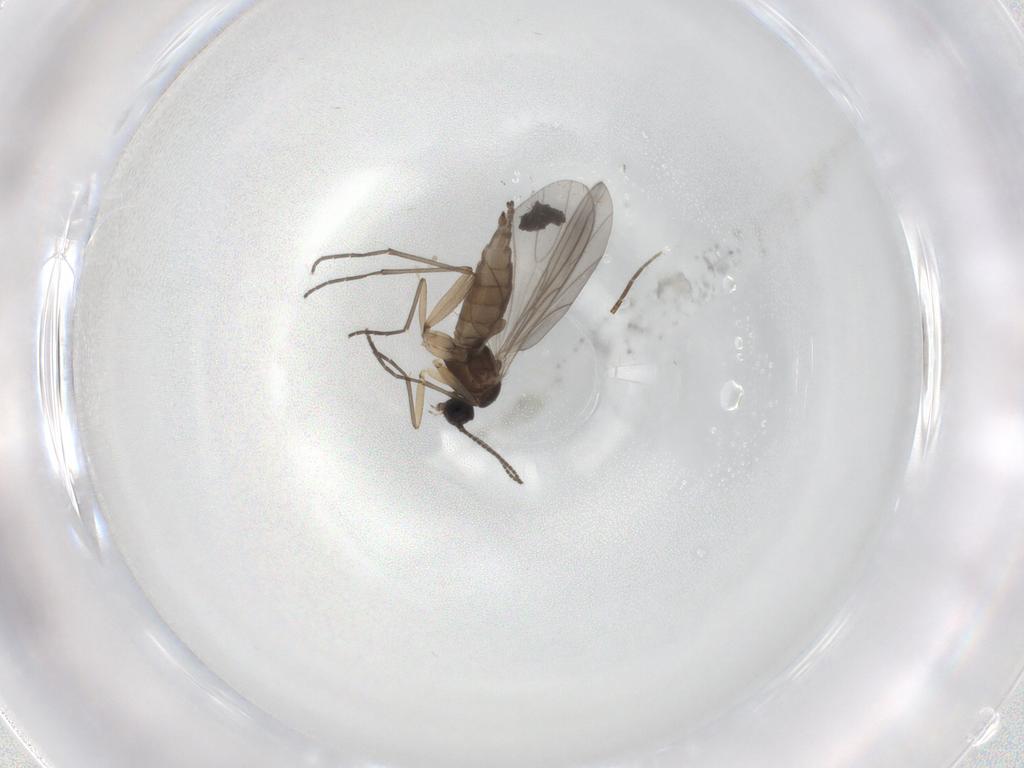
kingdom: Animalia
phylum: Arthropoda
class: Insecta
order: Diptera
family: Sciaridae
